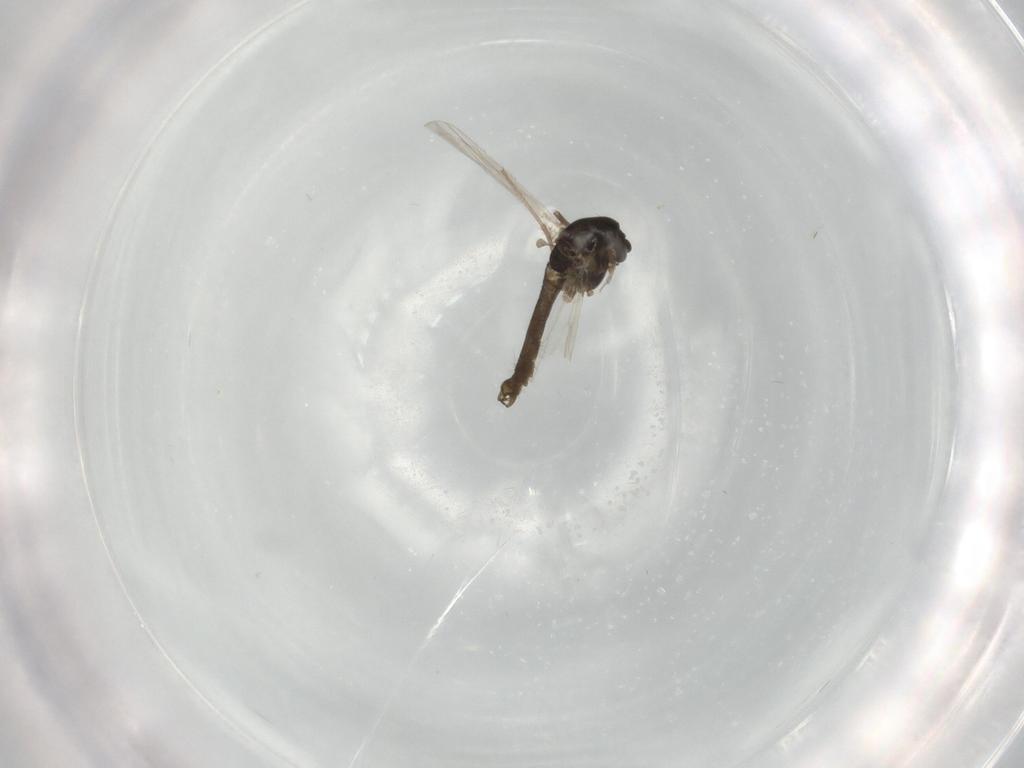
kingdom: Animalia
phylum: Arthropoda
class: Insecta
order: Diptera
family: Chironomidae
